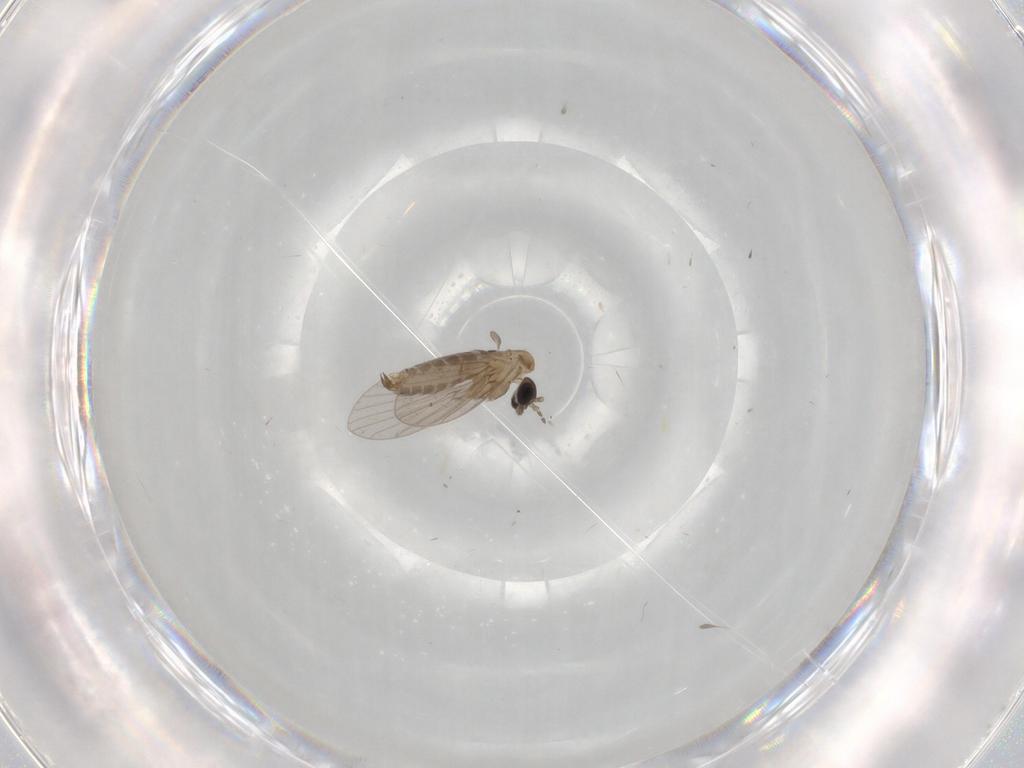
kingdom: Animalia
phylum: Arthropoda
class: Insecta
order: Diptera
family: Psychodidae
